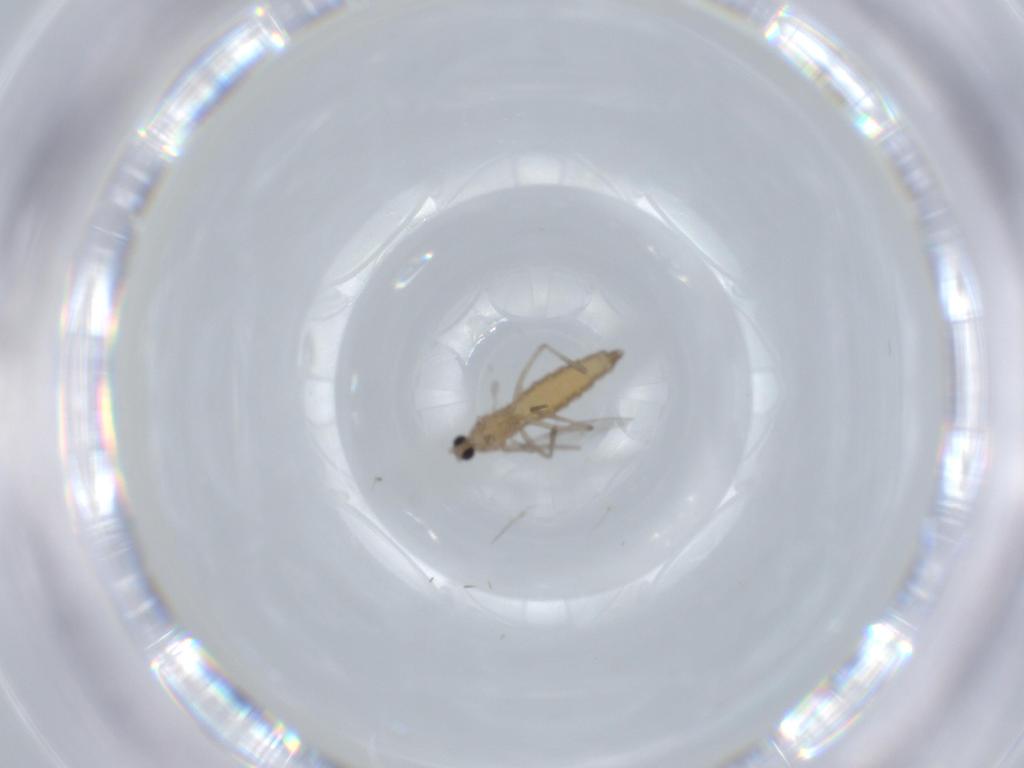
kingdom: Animalia
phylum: Arthropoda
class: Insecta
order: Diptera
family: Cecidomyiidae
